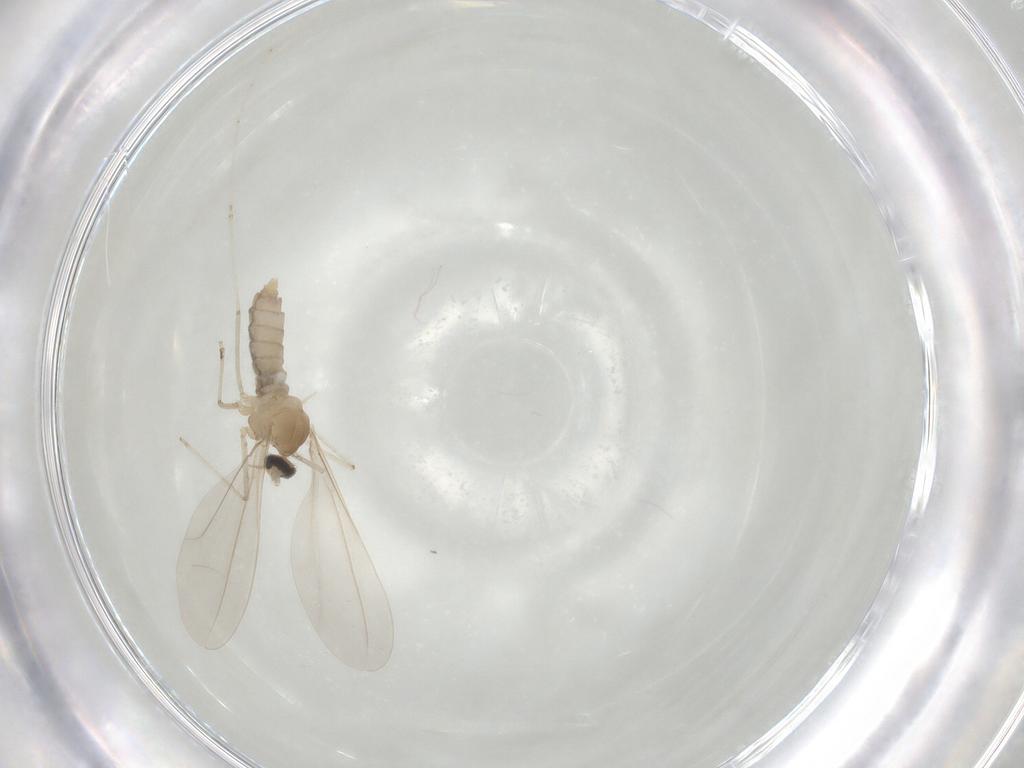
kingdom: Animalia
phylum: Arthropoda
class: Insecta
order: Diptera
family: Cecidomyiidae
